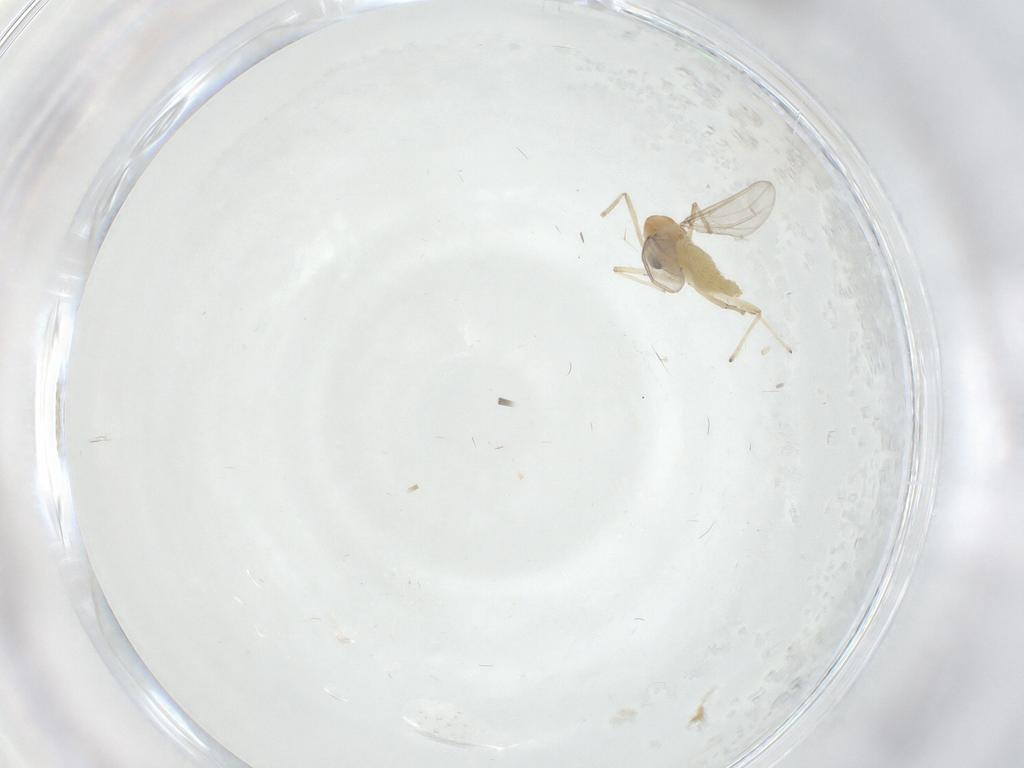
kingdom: Animalia
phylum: Arthropoda
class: Insecta
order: Diptera
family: Chironomidae
